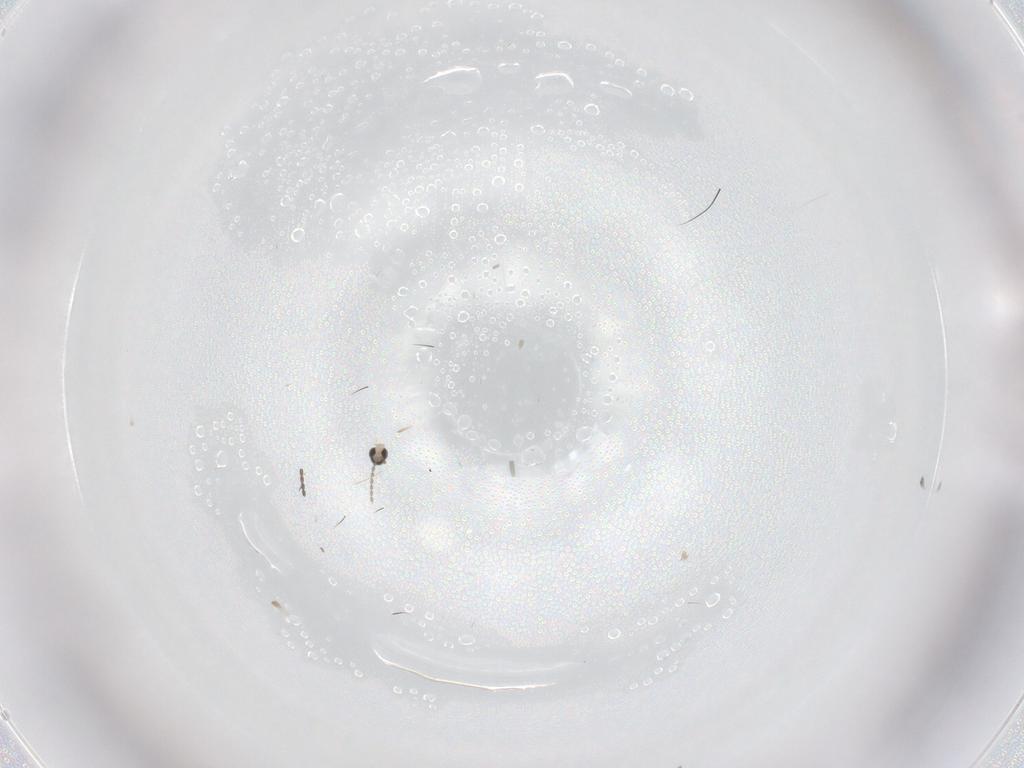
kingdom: Animalia
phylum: Arthropoda
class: Insecta
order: Diptera
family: Cecidomyiidae
